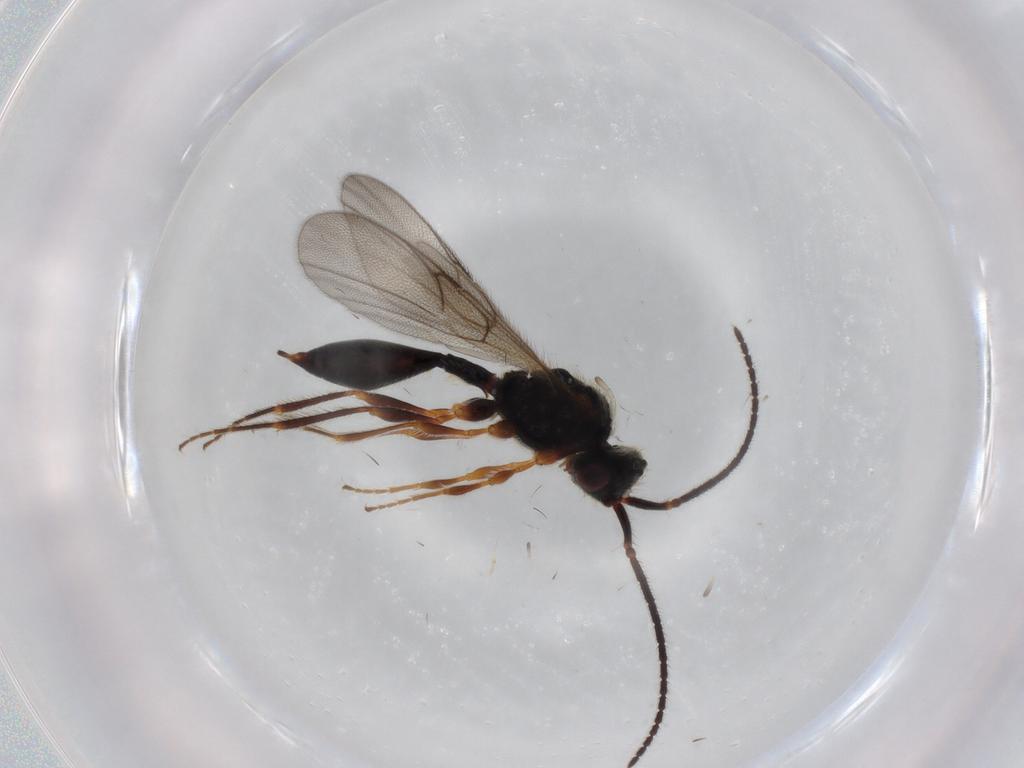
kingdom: Animalia
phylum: Arthropoda
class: Insecta
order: Hymenoptera
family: Diapriidae
